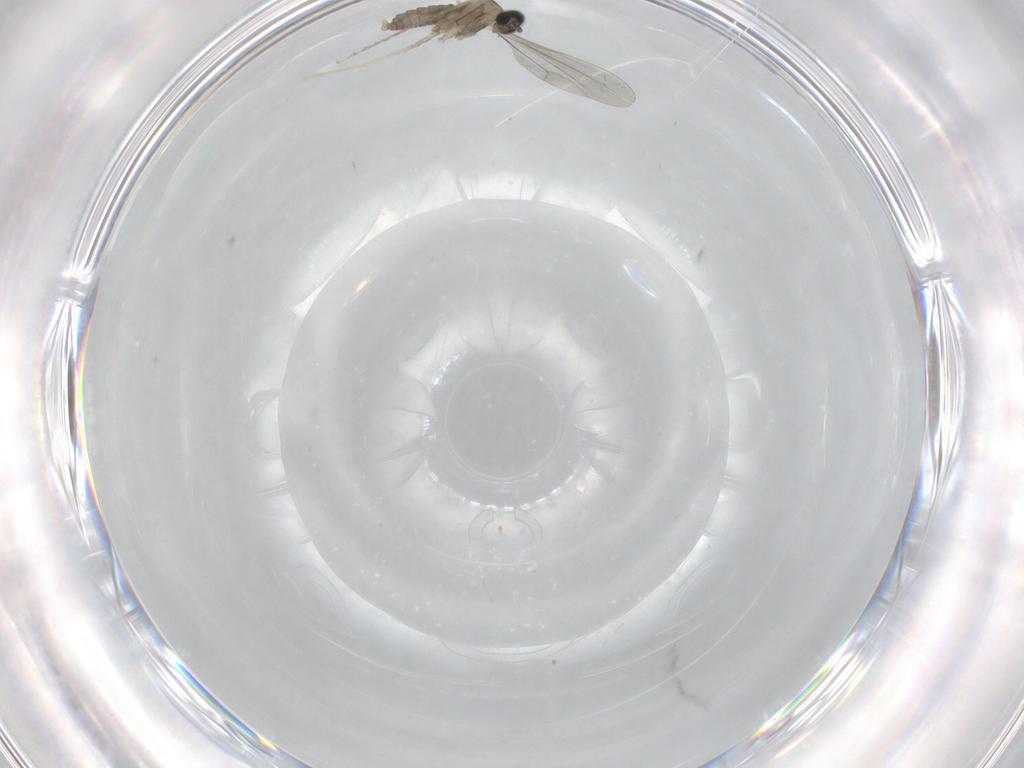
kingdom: Animalia
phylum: Arthropoda
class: Insecta
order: Diptera
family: Cecidomyiidae
